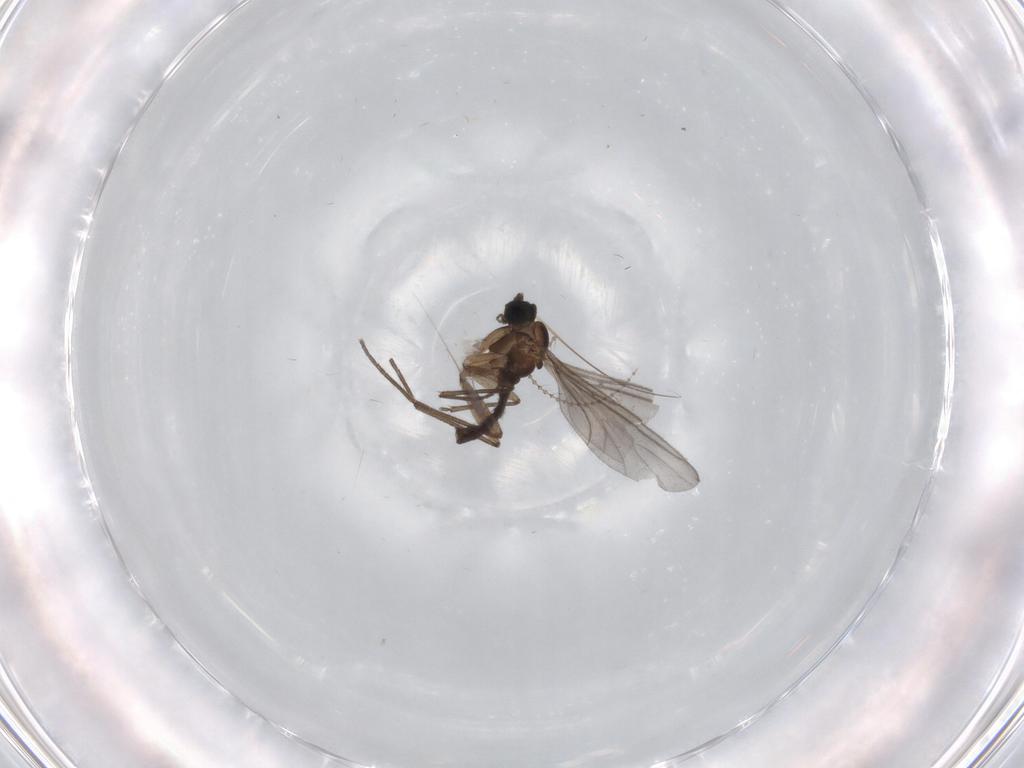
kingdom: Animalia
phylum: Arthropoda
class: Insecta
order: Diptera
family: Sciaridae
